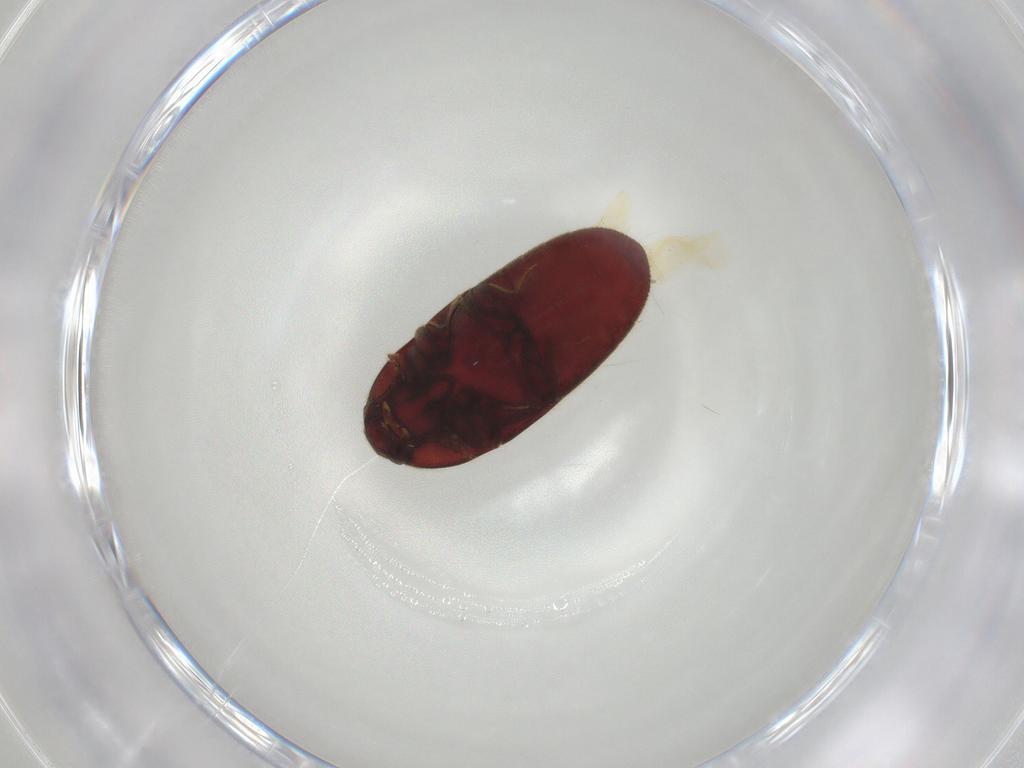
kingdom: Animalia
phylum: Arthropoda
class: Insecta
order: Coleoptera
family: Throscidae
